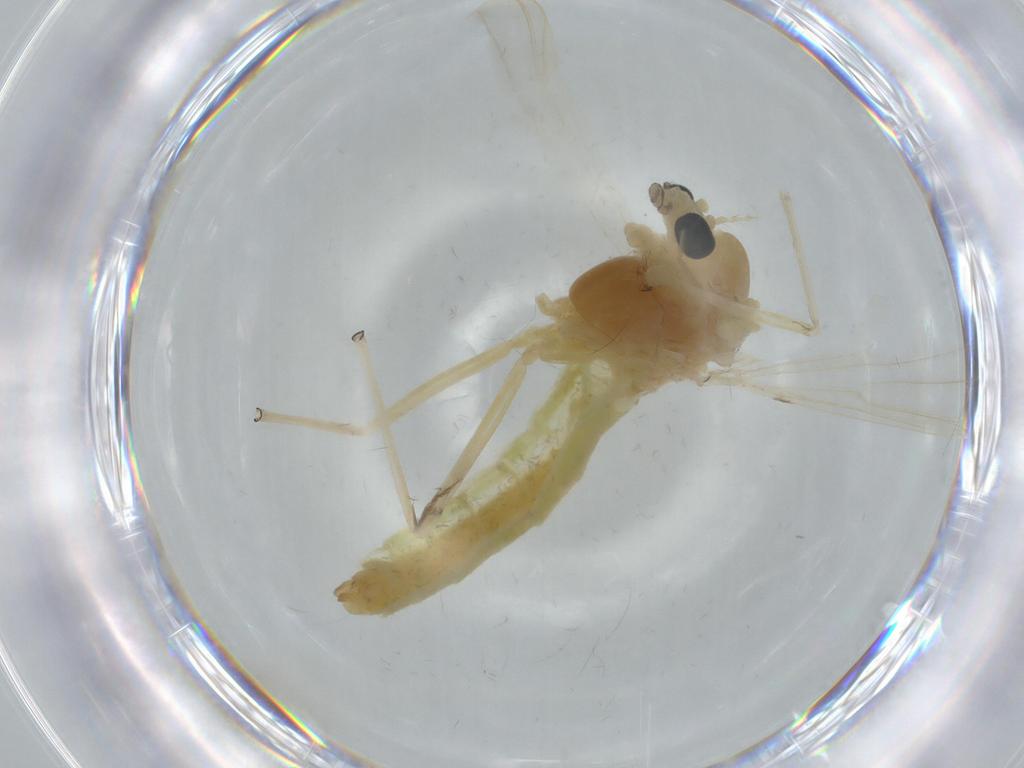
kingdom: Animalia
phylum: Arthropoda
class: Insecta
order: Diptera
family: Chironomidae
